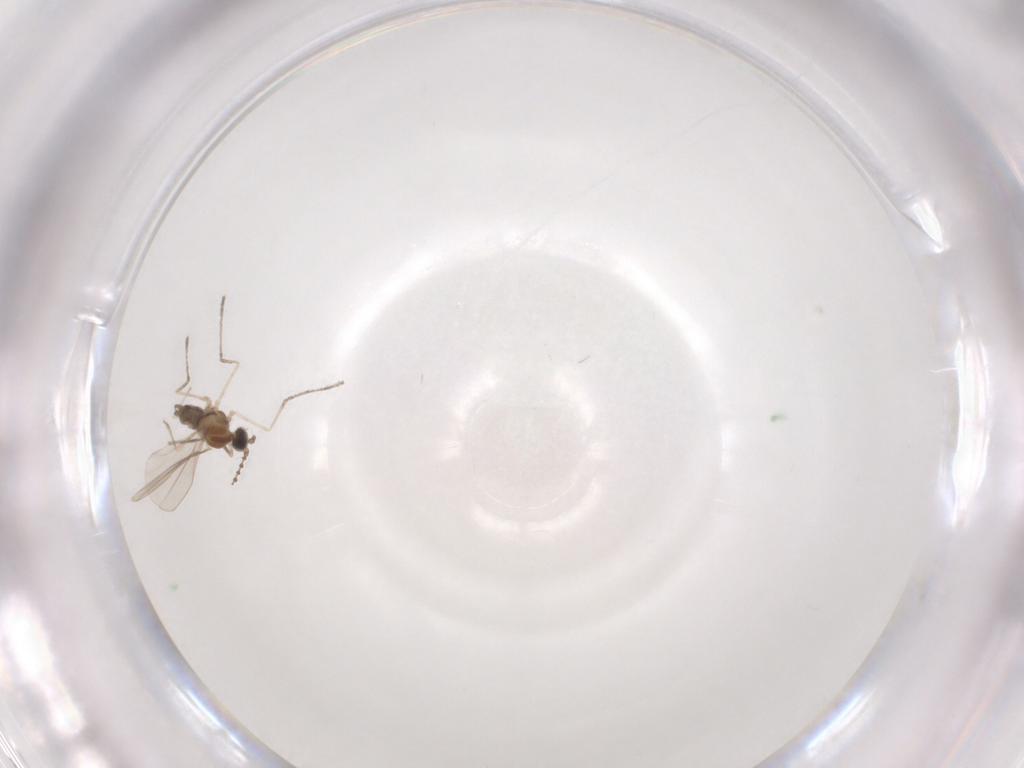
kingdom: Animalia
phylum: Arthropoda
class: Insecta
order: Diptera
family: Cecidomyiidae
